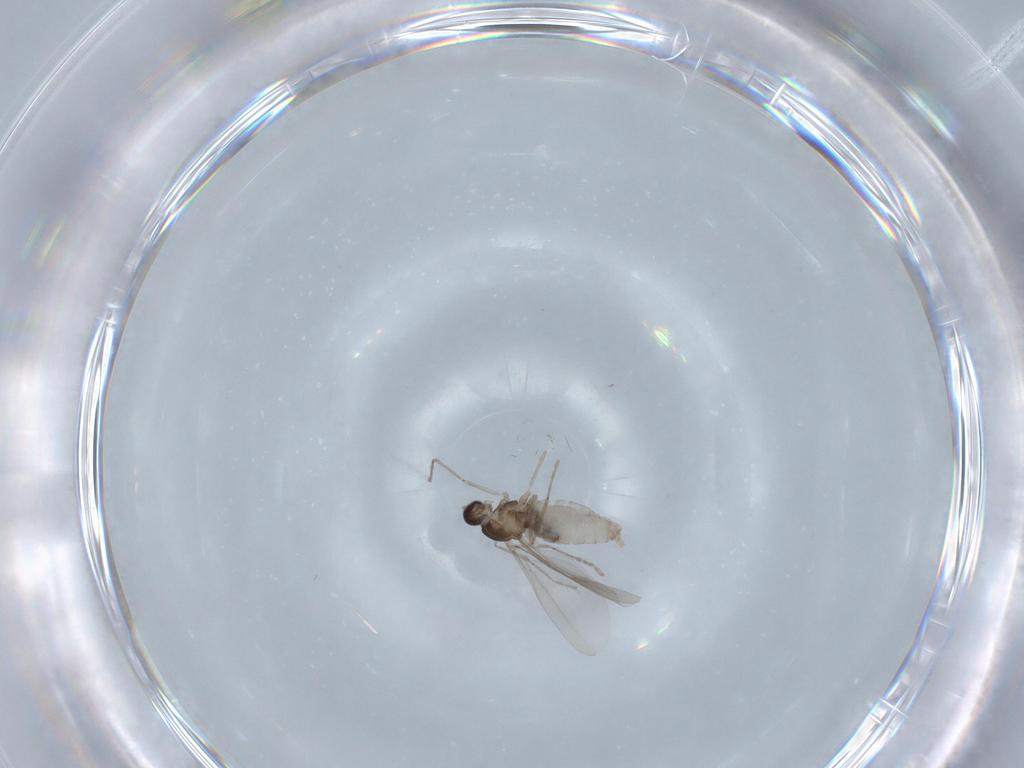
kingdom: Animalia
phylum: Arthropoda
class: Insecta
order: Diptera
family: Cecidomyiidae
